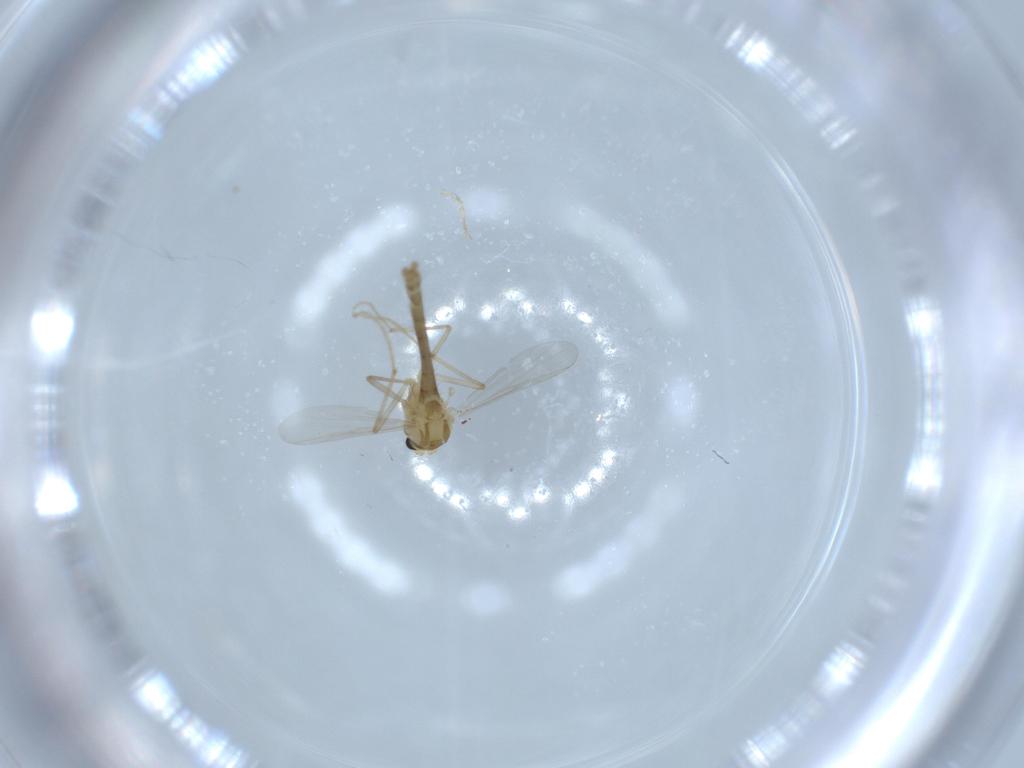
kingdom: Animalia
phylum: Arthropoda
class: Insecta
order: Diptera
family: Chironomidae
